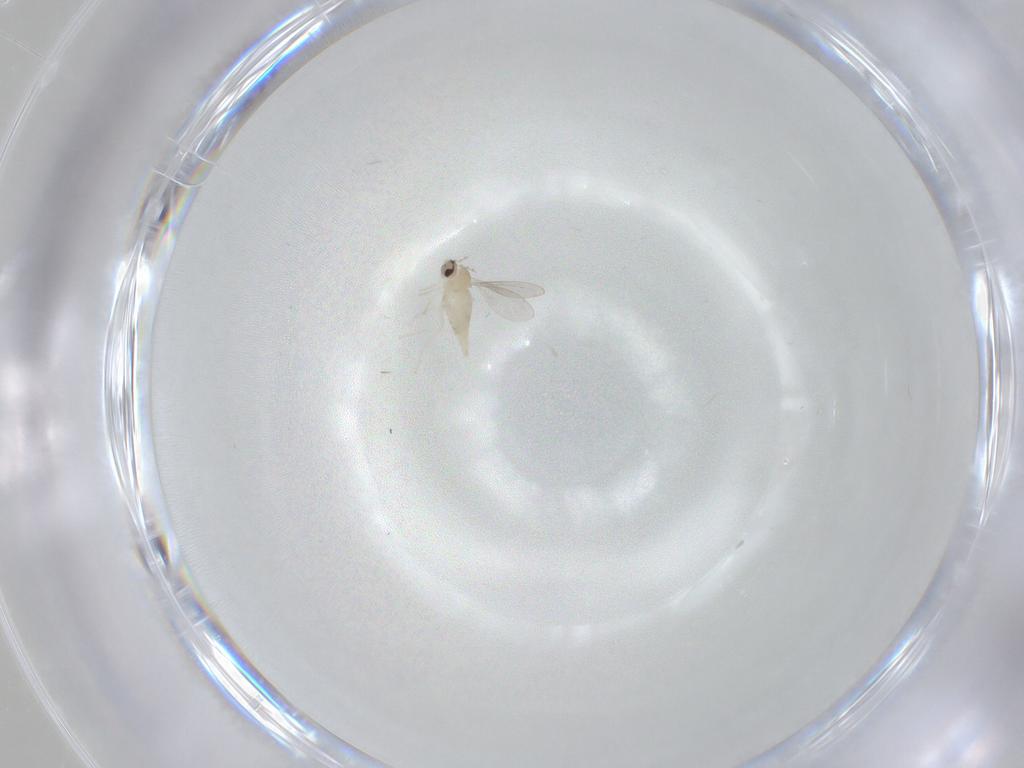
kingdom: Animalia
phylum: Arthropoda
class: Insecta
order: Diptera
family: Cecidomyiidae
